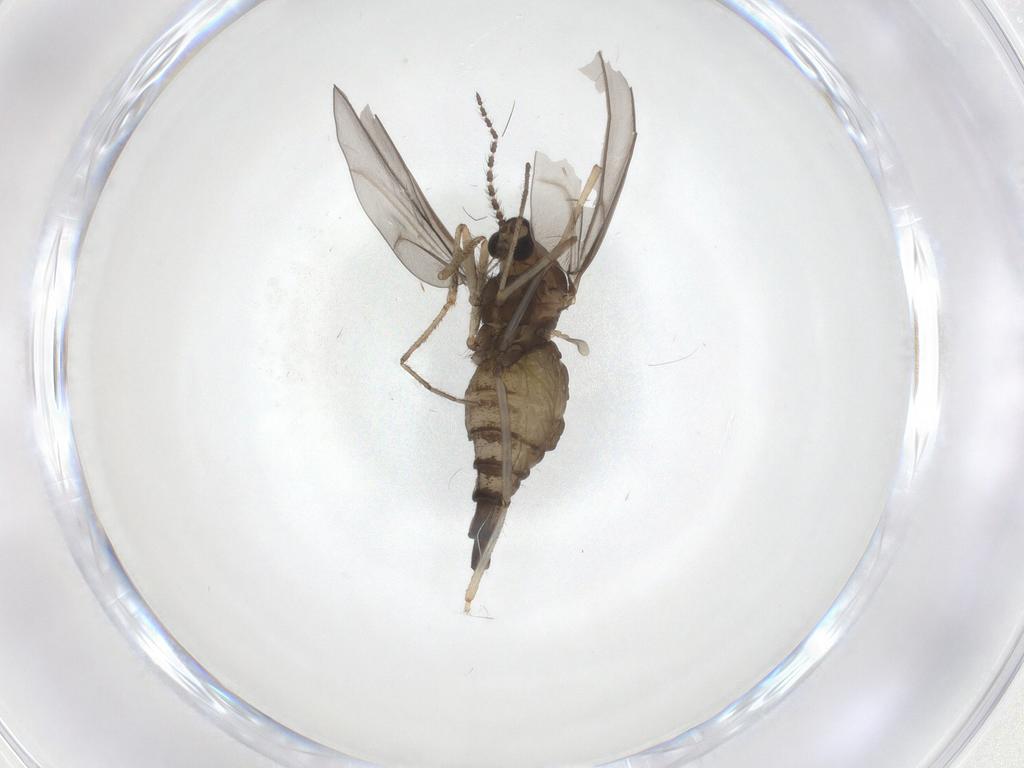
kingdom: Animalia
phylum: Arthropoda
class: Insecta
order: Diptera
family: Cecidomyiidae
